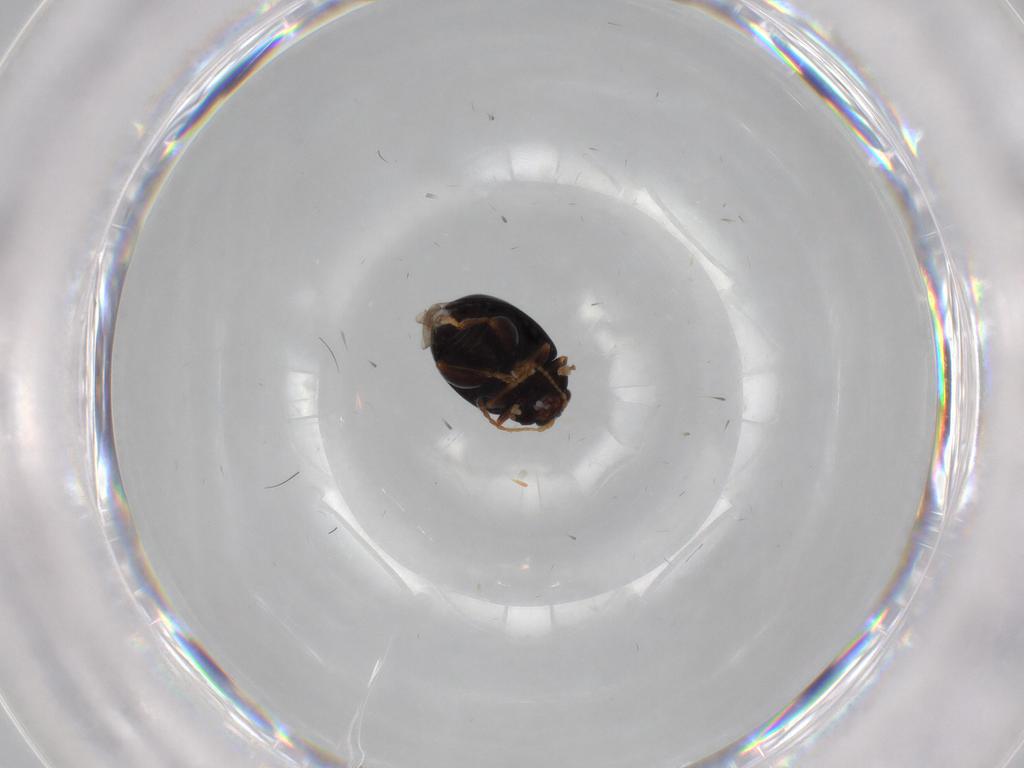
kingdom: Animalia
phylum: Arthropoda
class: Insecta
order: Coleoptera
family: Chrysomelidae
